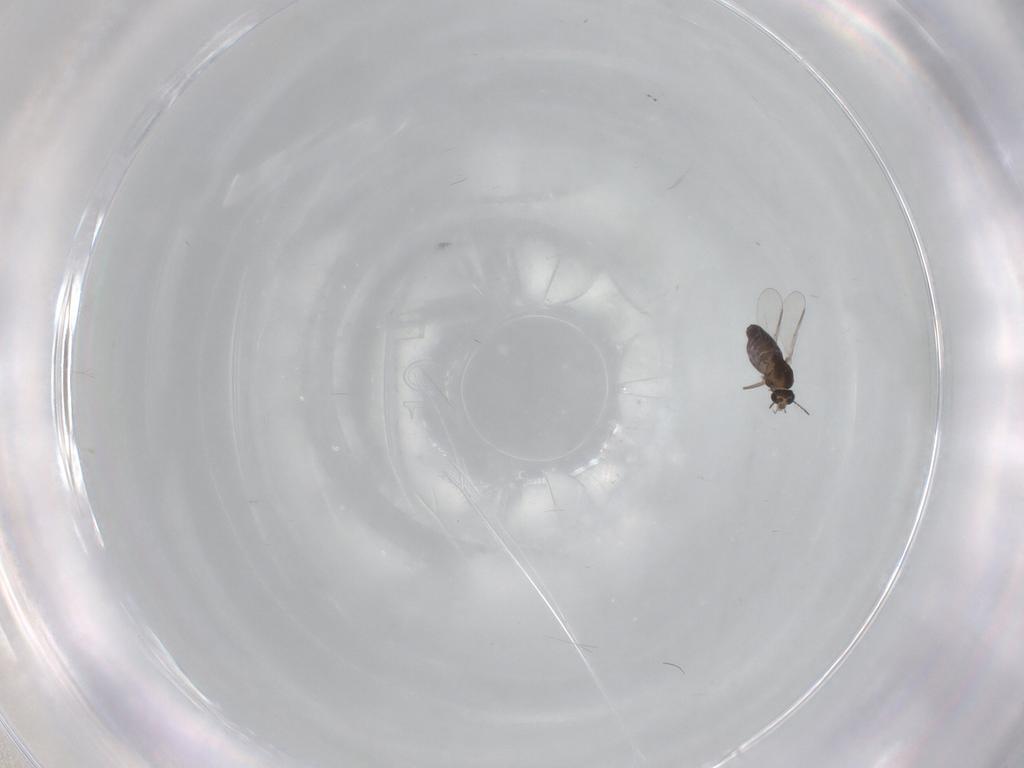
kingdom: Animalia
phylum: Arthropoda
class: Insecta
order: Diptera
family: Chironomidae
